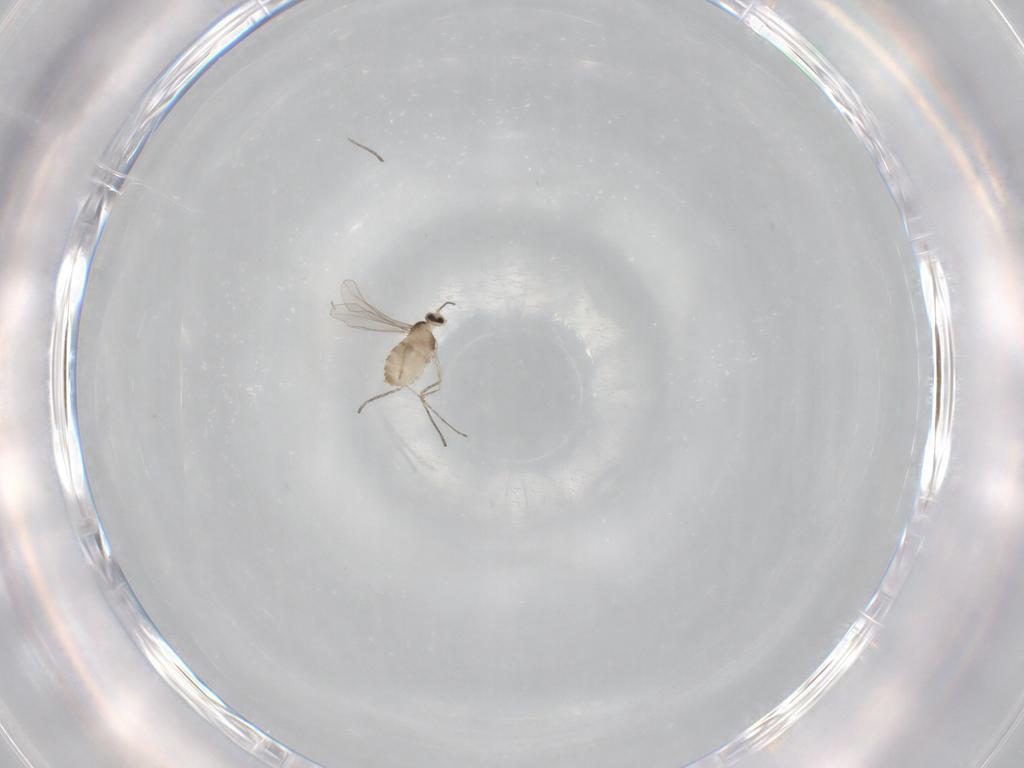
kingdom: Animalia
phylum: Arthropoda
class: Insecta
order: Diptera
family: Cecidomyiidae
